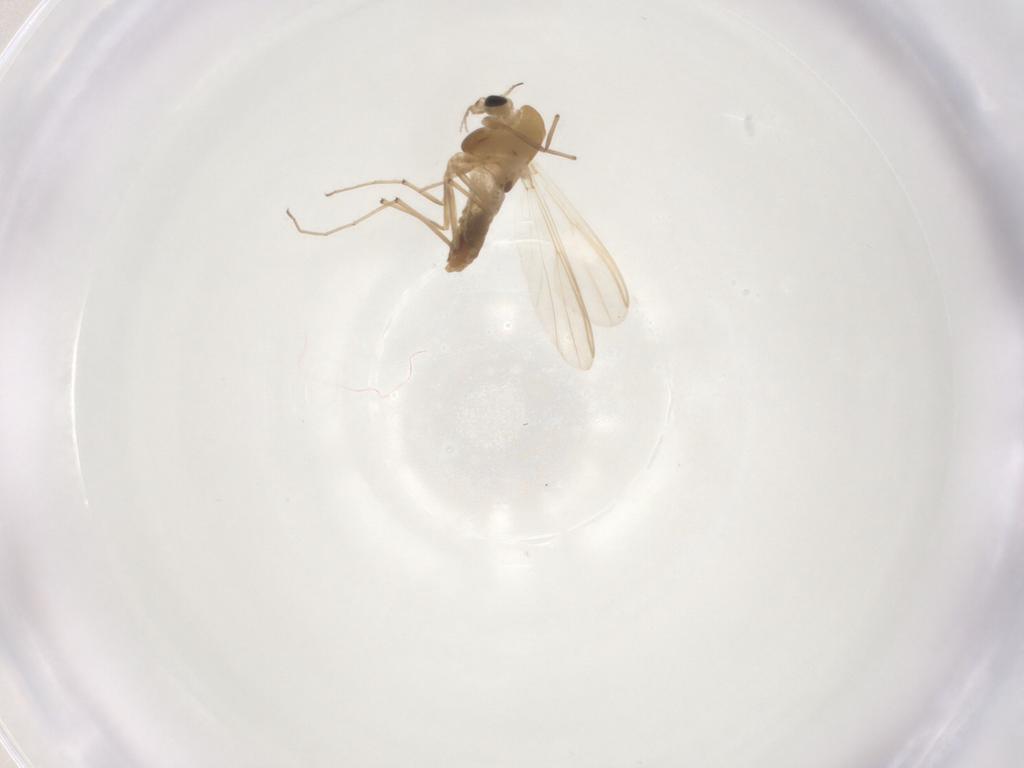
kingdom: Animalia
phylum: Arthropoda
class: Insecta
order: Diptera
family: Chironomidae
